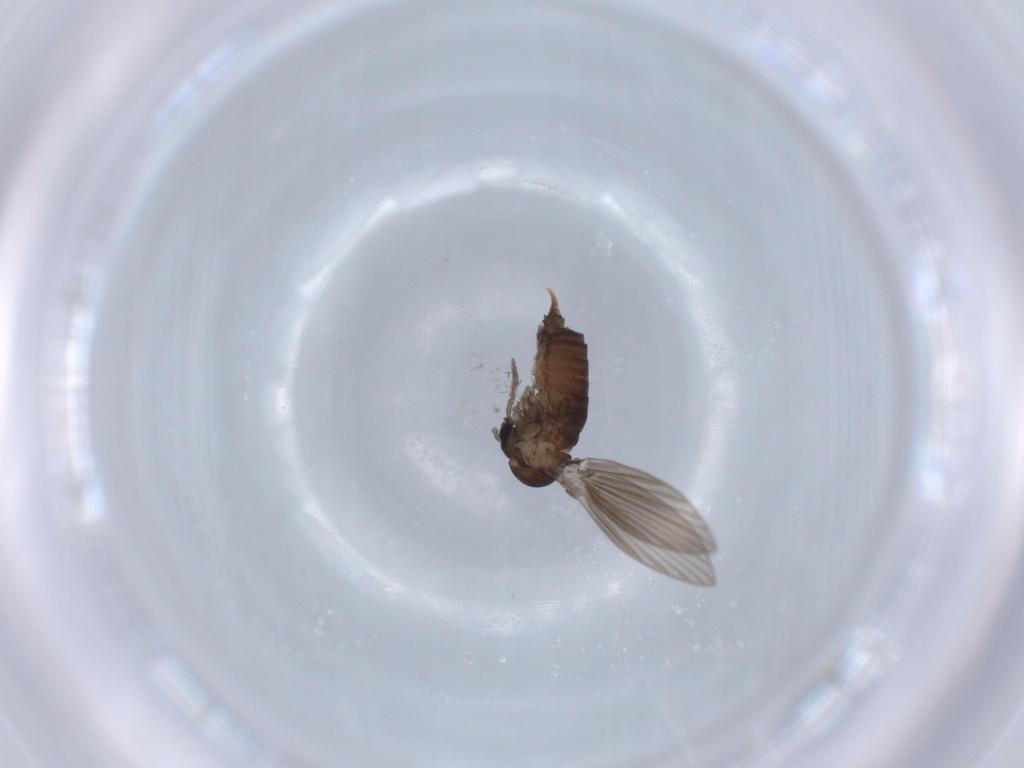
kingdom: Animalia
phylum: Arthropoda
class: Insecta
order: Diptera
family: Psychodidae
